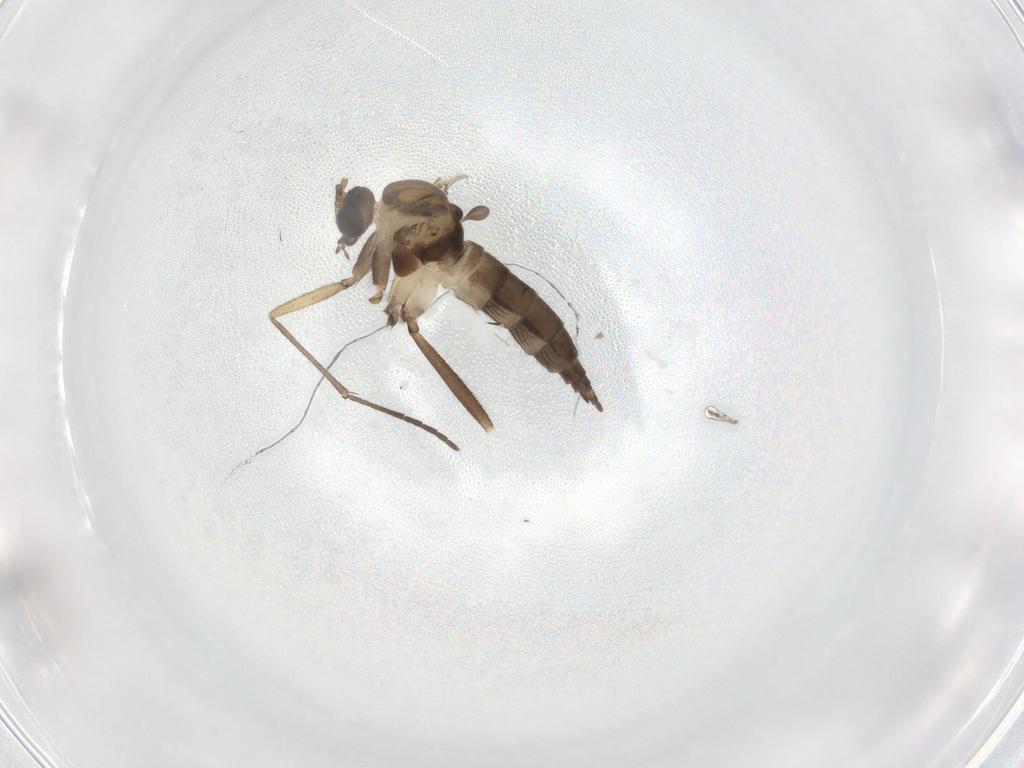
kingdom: Animalia
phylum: Arthropoda
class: Insecta
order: Diptera
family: Sciaridae
